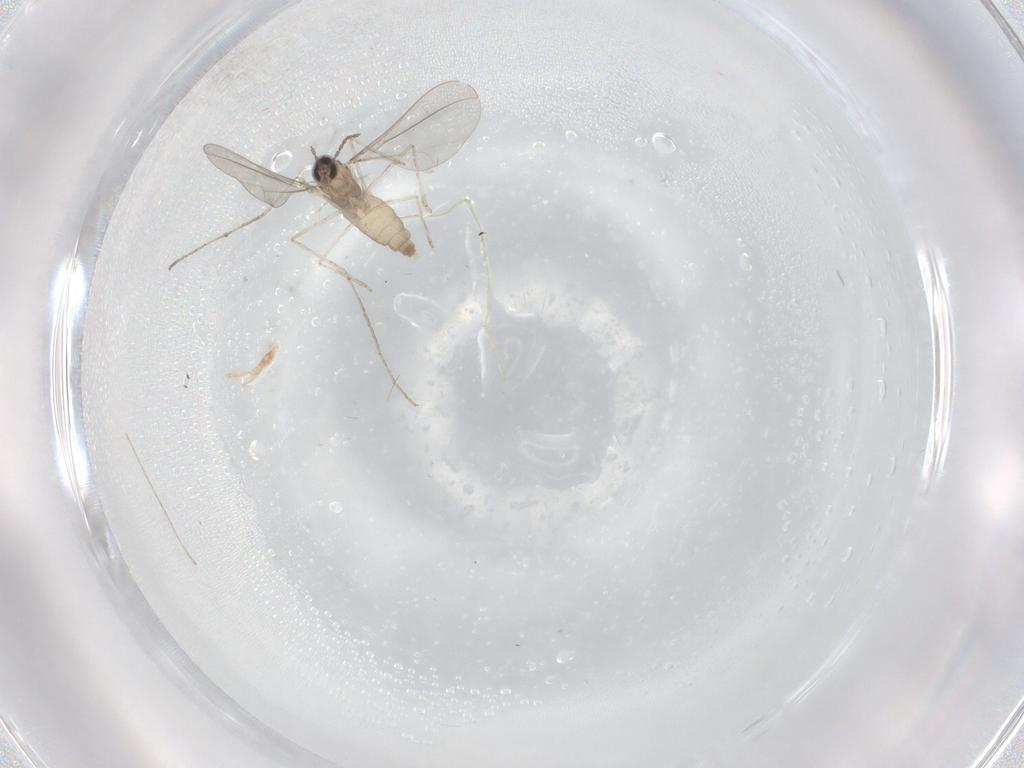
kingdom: Animalia
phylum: Arthropoda
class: Insecta
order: Diptera
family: Cecidomyiidae
